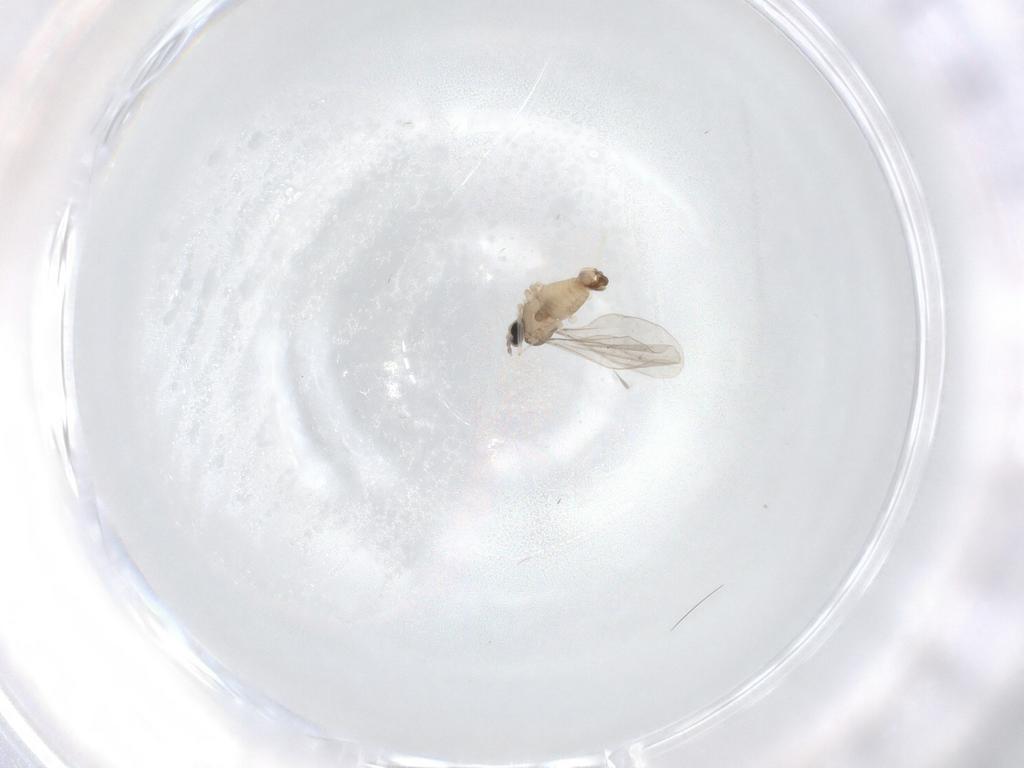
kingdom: Animalia
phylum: Arthropoda
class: Insecta
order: Diptera
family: Cecidomyiidae
